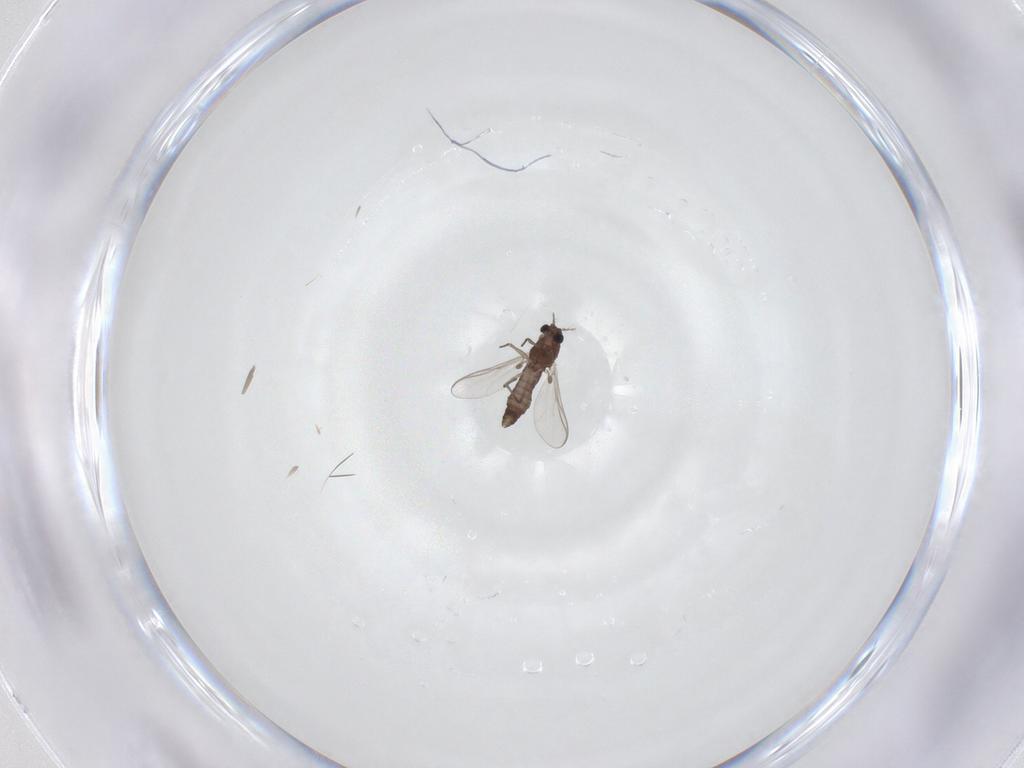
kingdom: Animalia
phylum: Arthropoda
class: Insecta
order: Diptera
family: Chironomidae
